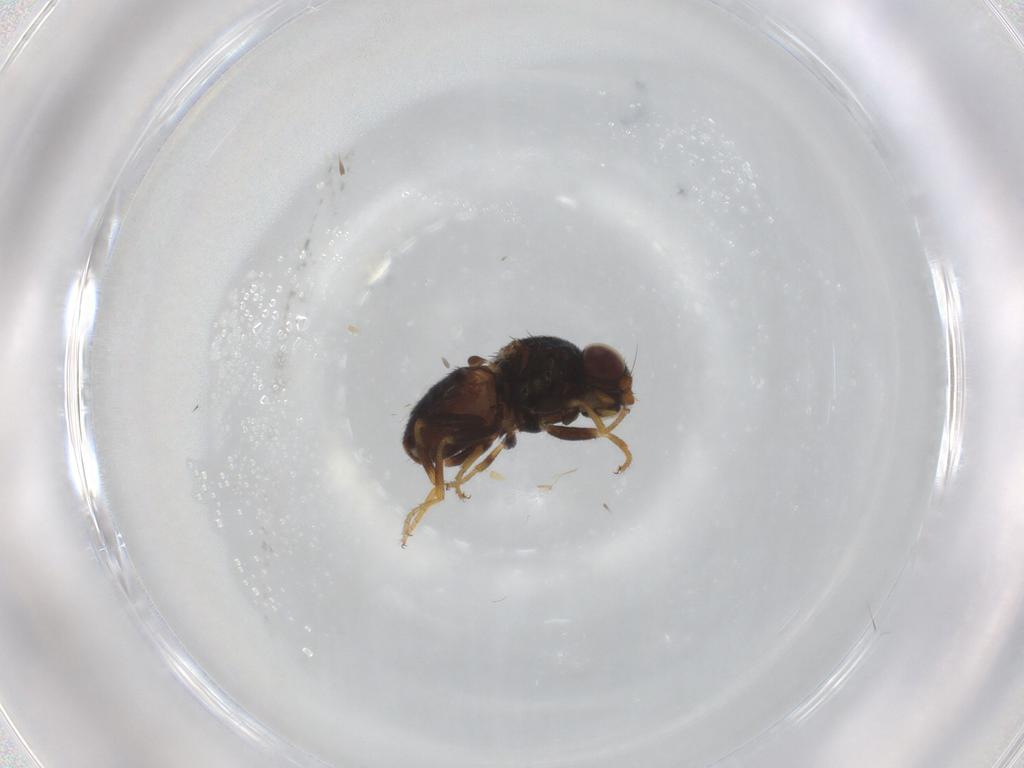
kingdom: Animalia
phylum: Arthropoda
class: Insecta
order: Diptera
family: Chloropidae
